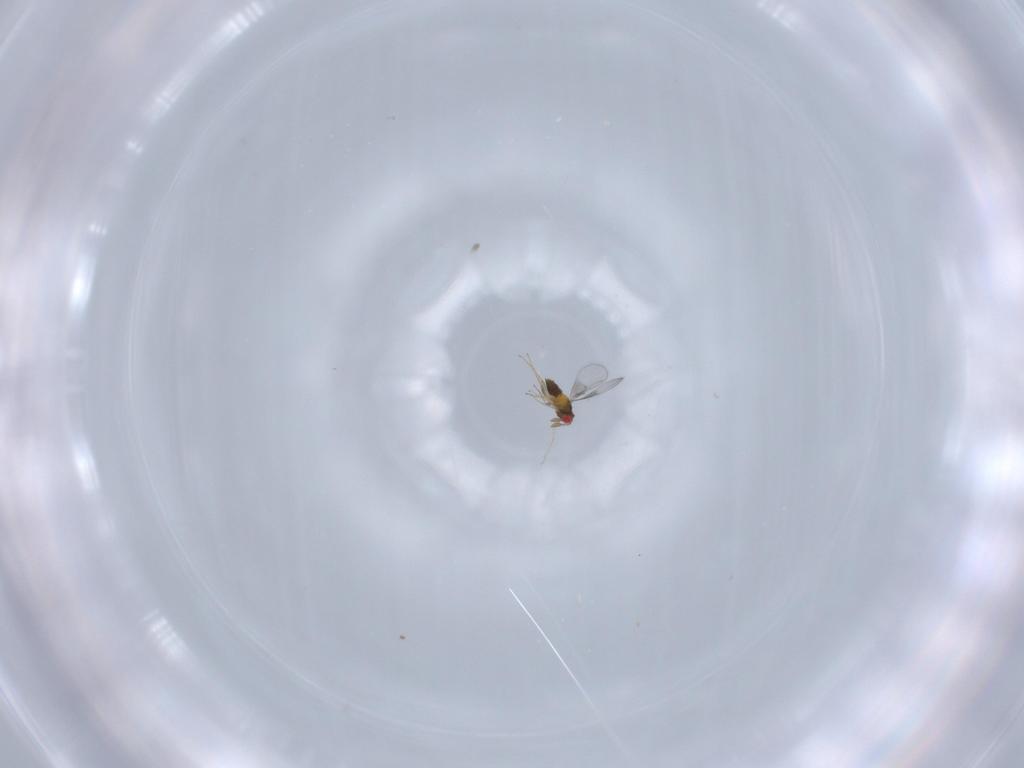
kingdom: Animalia
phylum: Arthropoda
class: Insecta
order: Hymenoptera
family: Trichogrammatidae
